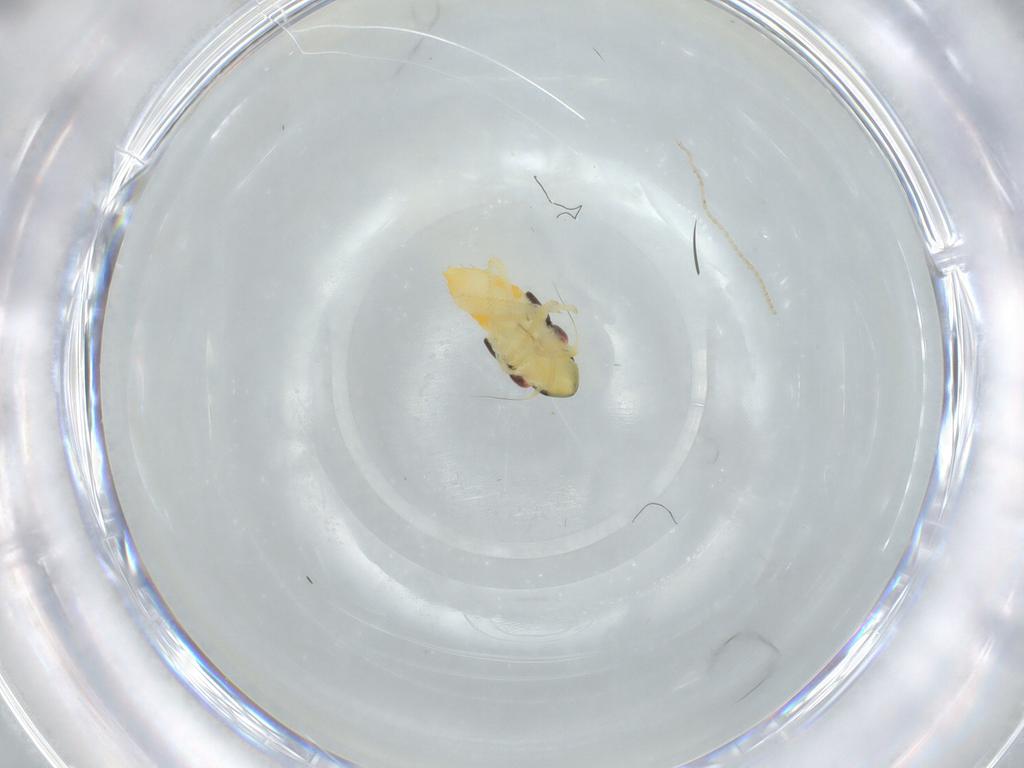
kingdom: Animalia
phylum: Arthropoda
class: Insecta
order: Hemiptera
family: Cicadellidae
